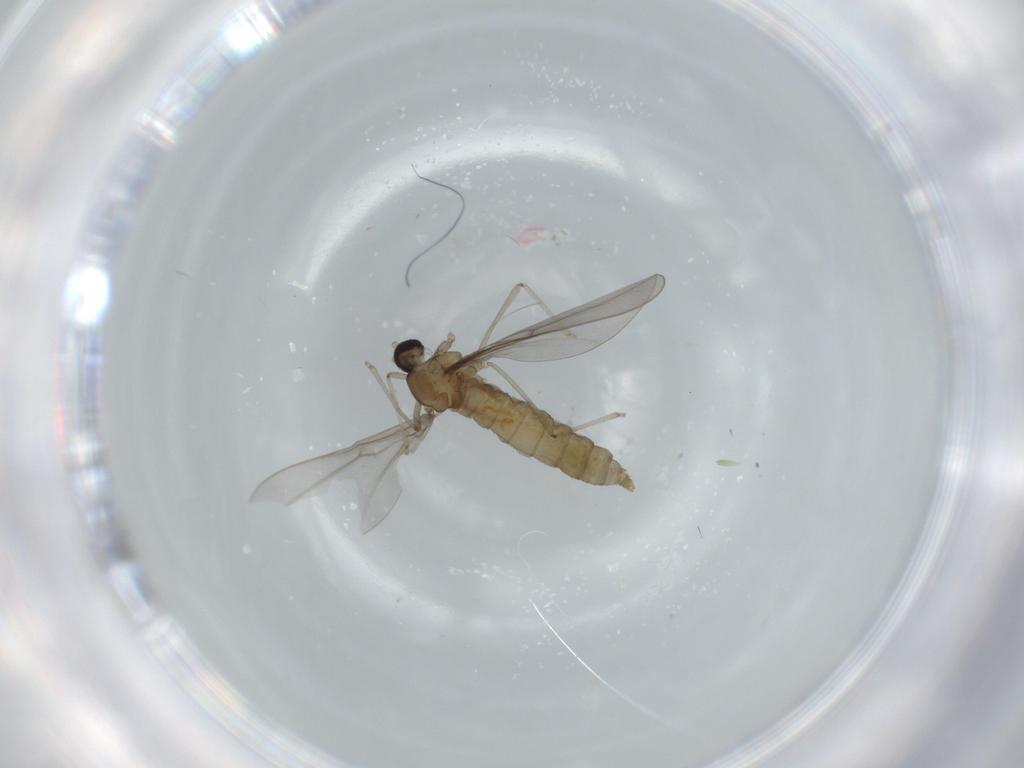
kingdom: Animalia
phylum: Arthropoda
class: Insecta
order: Diptera
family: Cecidomyiidae
